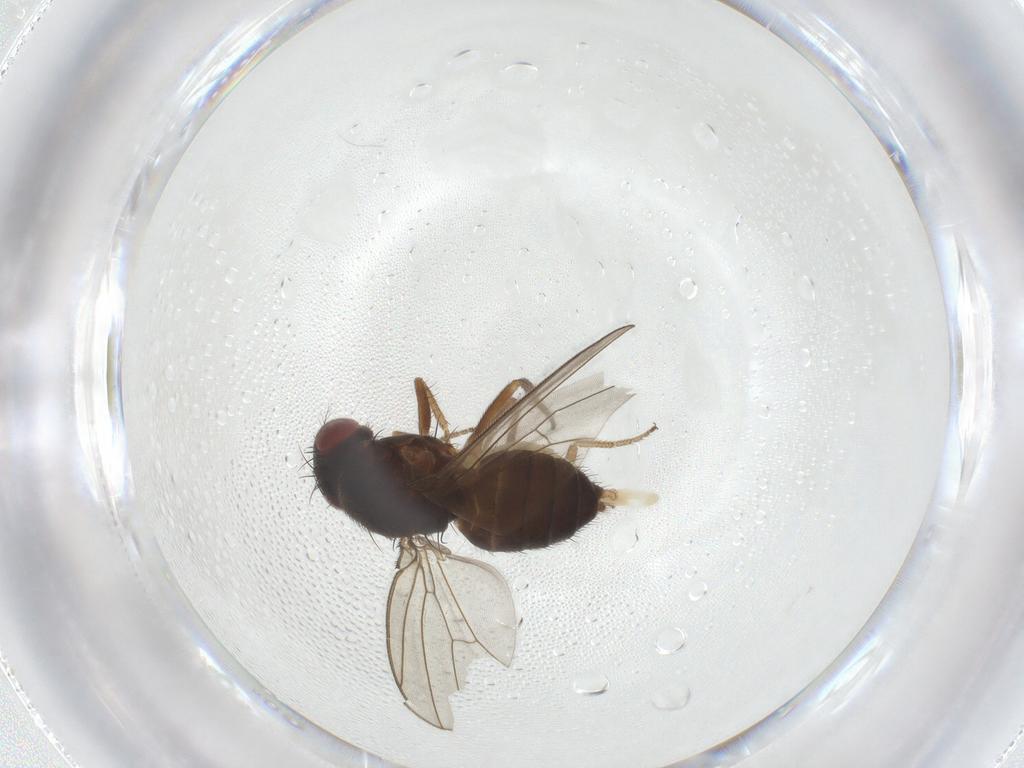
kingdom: Animalia
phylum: Arthropoda
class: Insecta
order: Diptera
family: Drosophilidae
